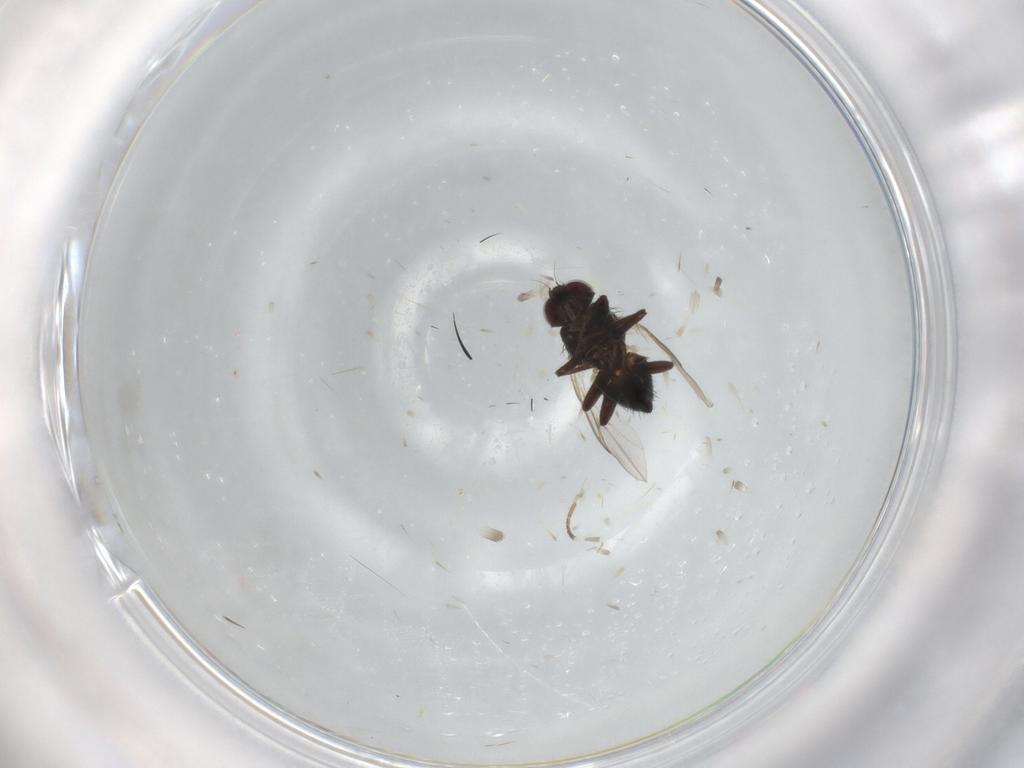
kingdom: Animalia
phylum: Arthropoda
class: Insecta
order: Diptera
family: Agromyzidae
